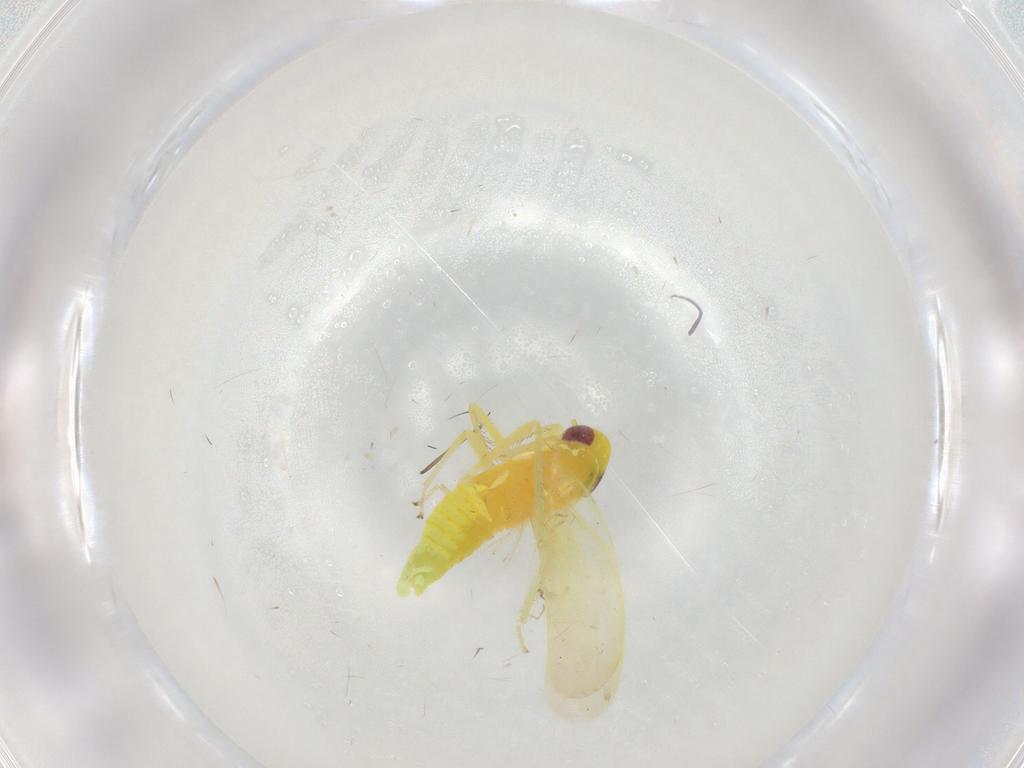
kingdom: Animalia
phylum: Arthropoda
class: Insecta
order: Hemiptera
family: Cicadellidae
